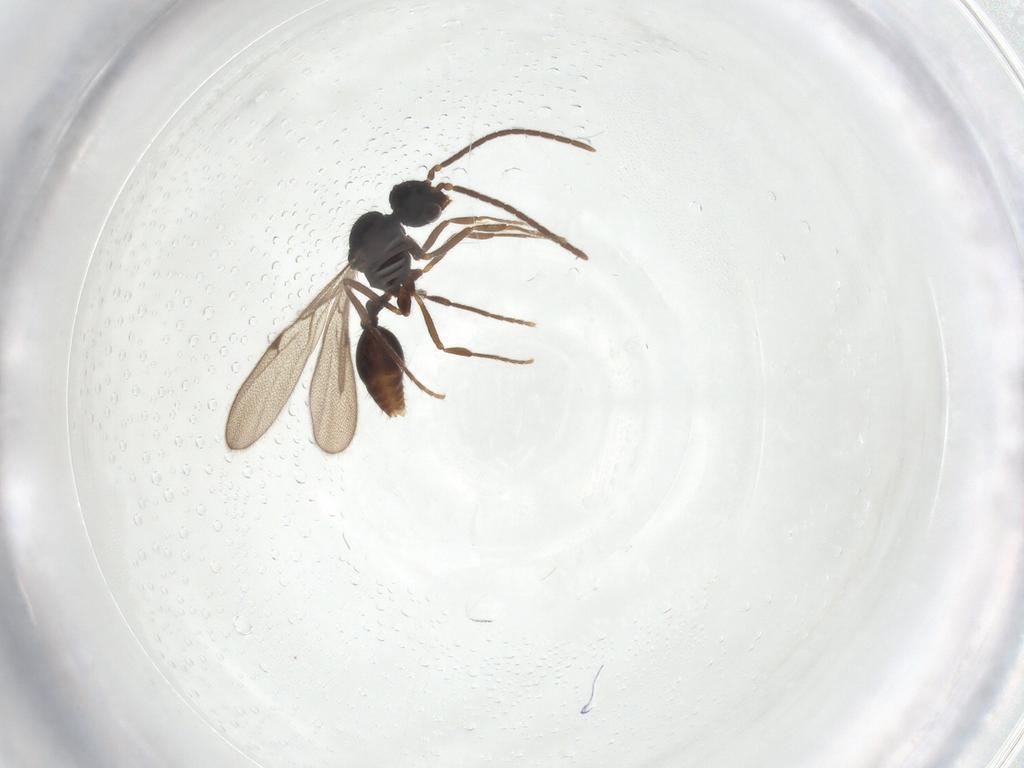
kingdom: Animalia
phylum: Arthropoda
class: Insecta
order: Hymenoptera
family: Formicidae
